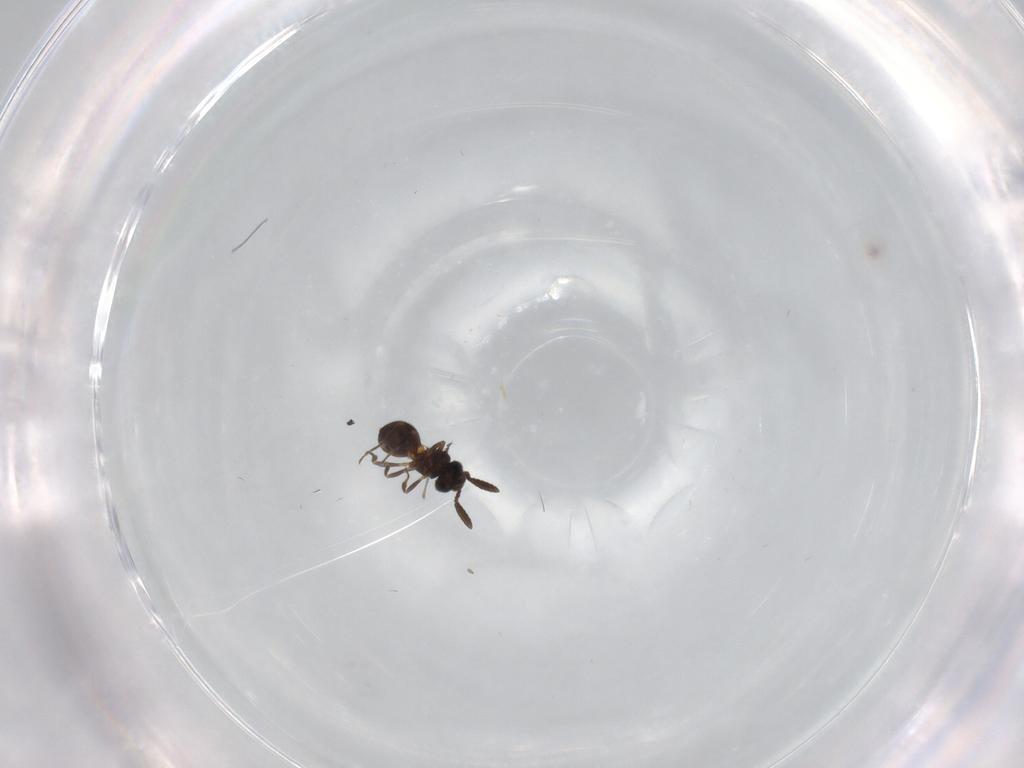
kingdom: Animalia
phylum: Arthropoda
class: Insecta
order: Hymenoptera
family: Scelionidae
